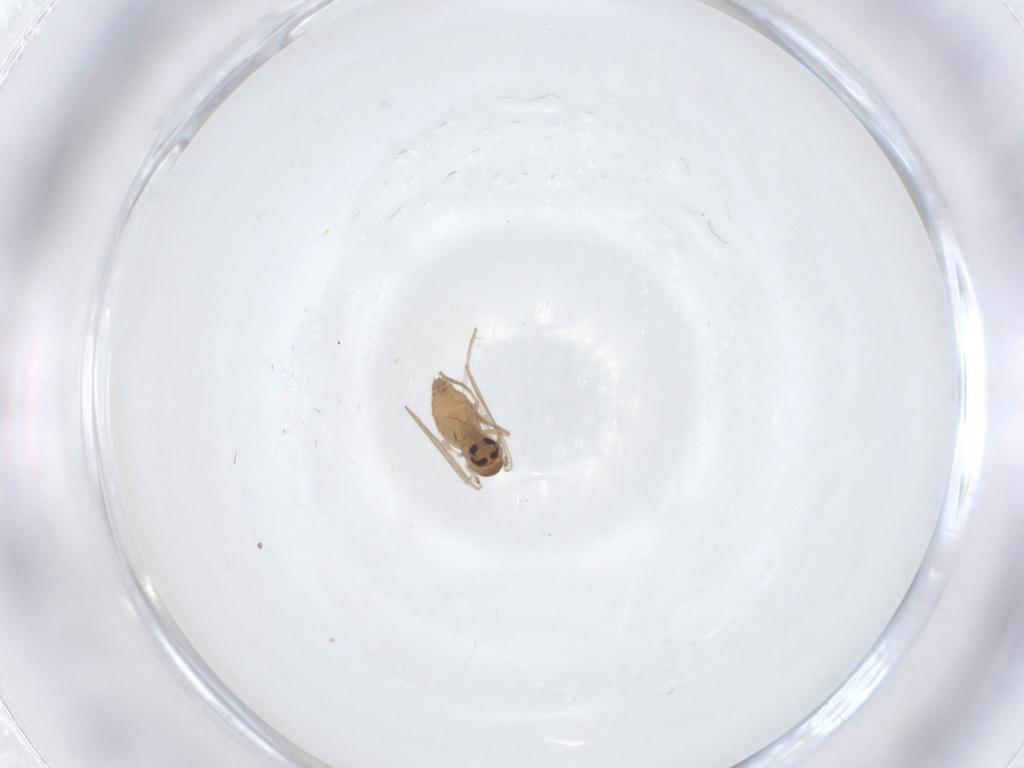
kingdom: Animalia
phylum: Arthropoda
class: Insecta
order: Diptera
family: Psychodidae
